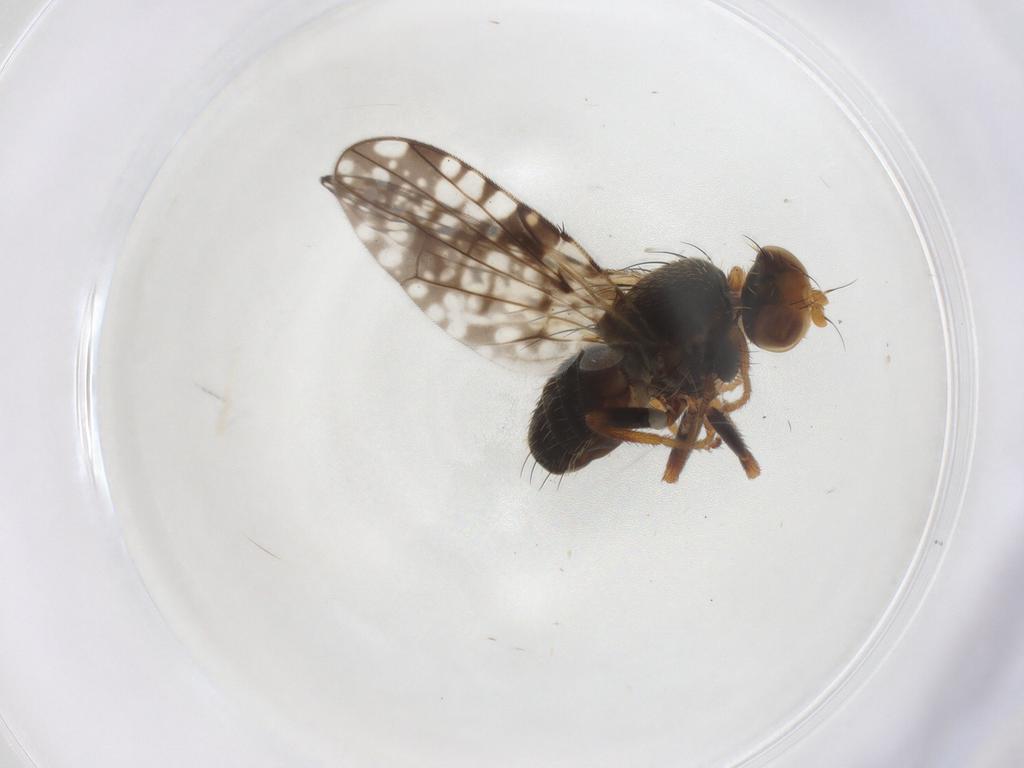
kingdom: Animalia
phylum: Arthropoda
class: Insecta
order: Diptera
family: Tephritidae
